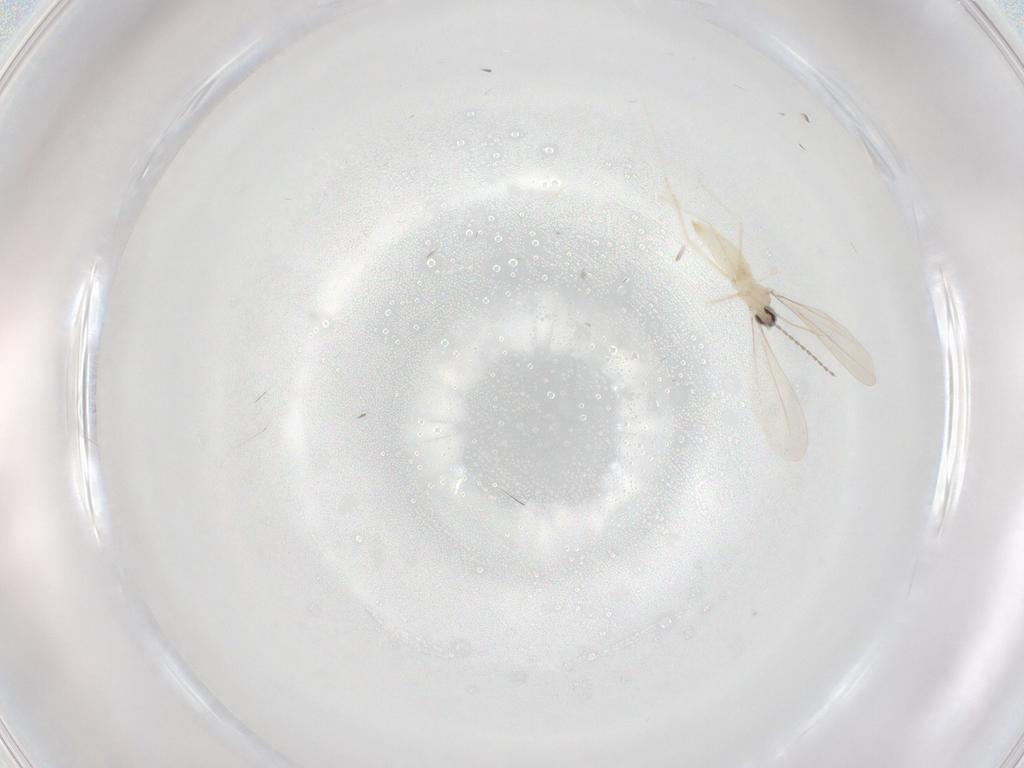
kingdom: Animalia
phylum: Arthropoda
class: Insecta
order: Diptera
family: Cecidomyiidae
